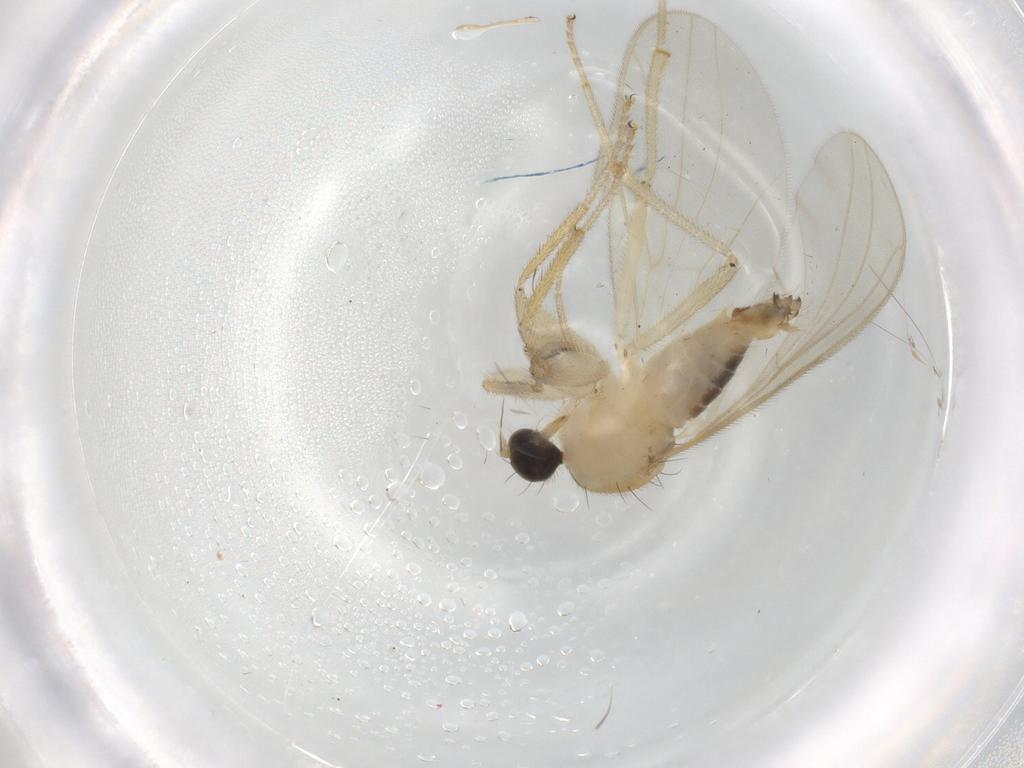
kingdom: Animalia
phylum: Arthropoda
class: Insecta
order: Diptera
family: Hybotidae
